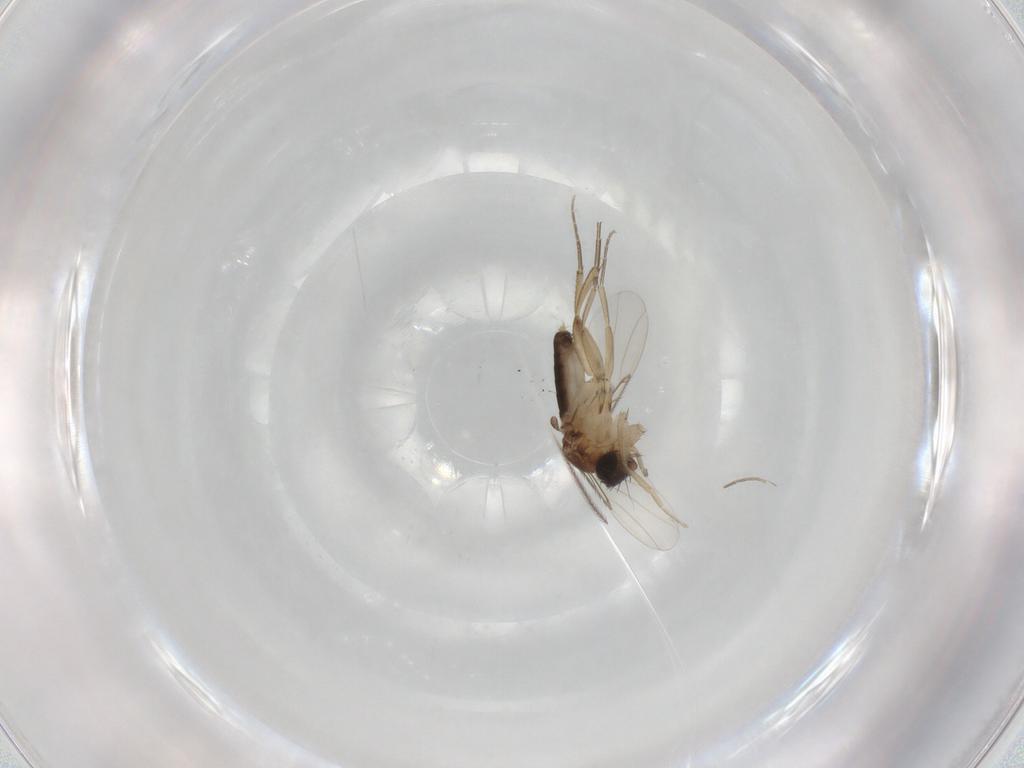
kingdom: Animalia
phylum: Arthropoda
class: Insecta
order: Diptera
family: Phoridae
